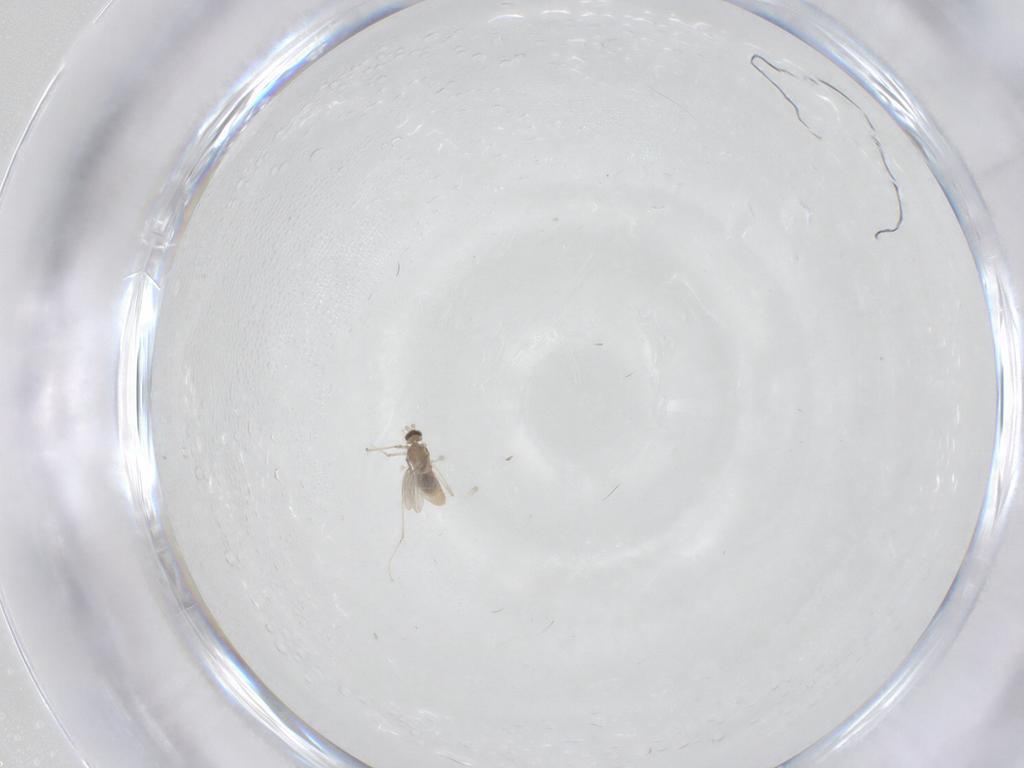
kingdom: Animalia
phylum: Arthropoda
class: Insecta
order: Diptera
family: Cecidomyiidae
